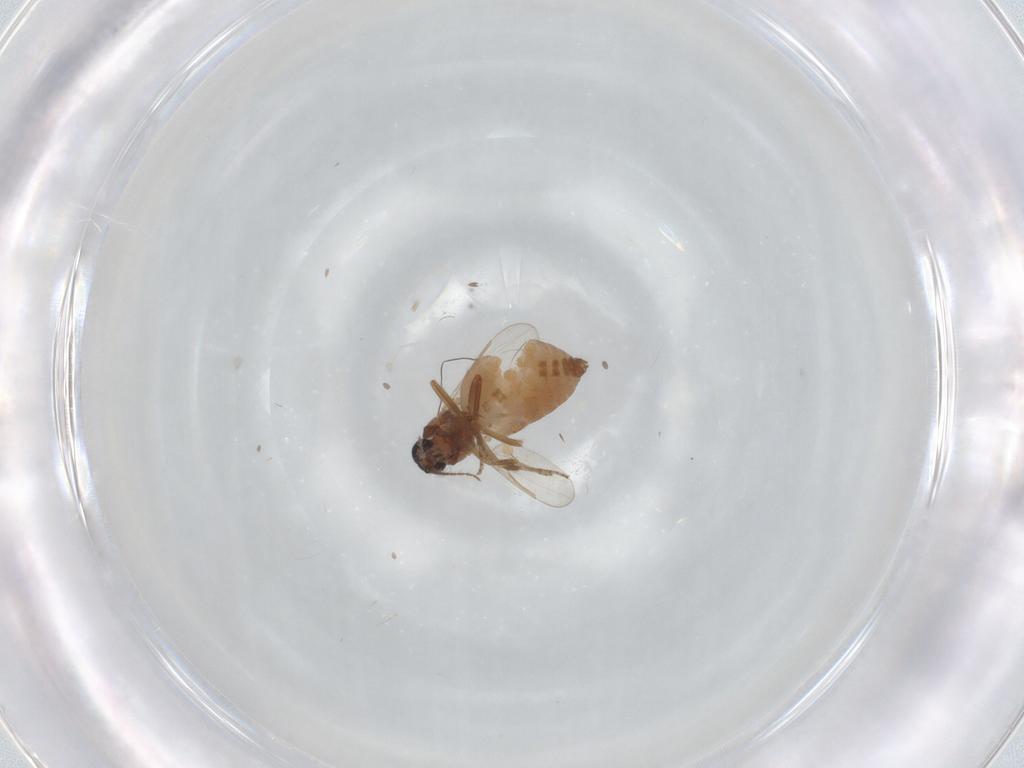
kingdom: Animalia
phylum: Arthropoda
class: Insecta
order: Diptera
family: Ceratopogonidae
